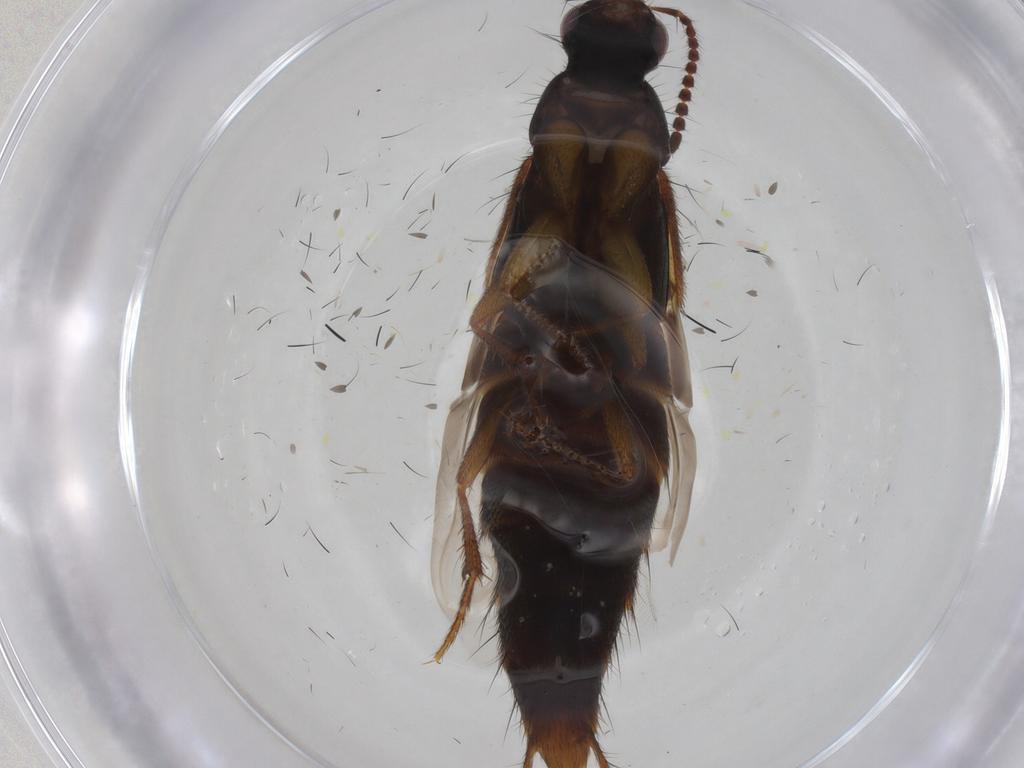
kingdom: Animalia
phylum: Arthropoda
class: Insecta
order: Coleoptera
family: Staphylinidae
